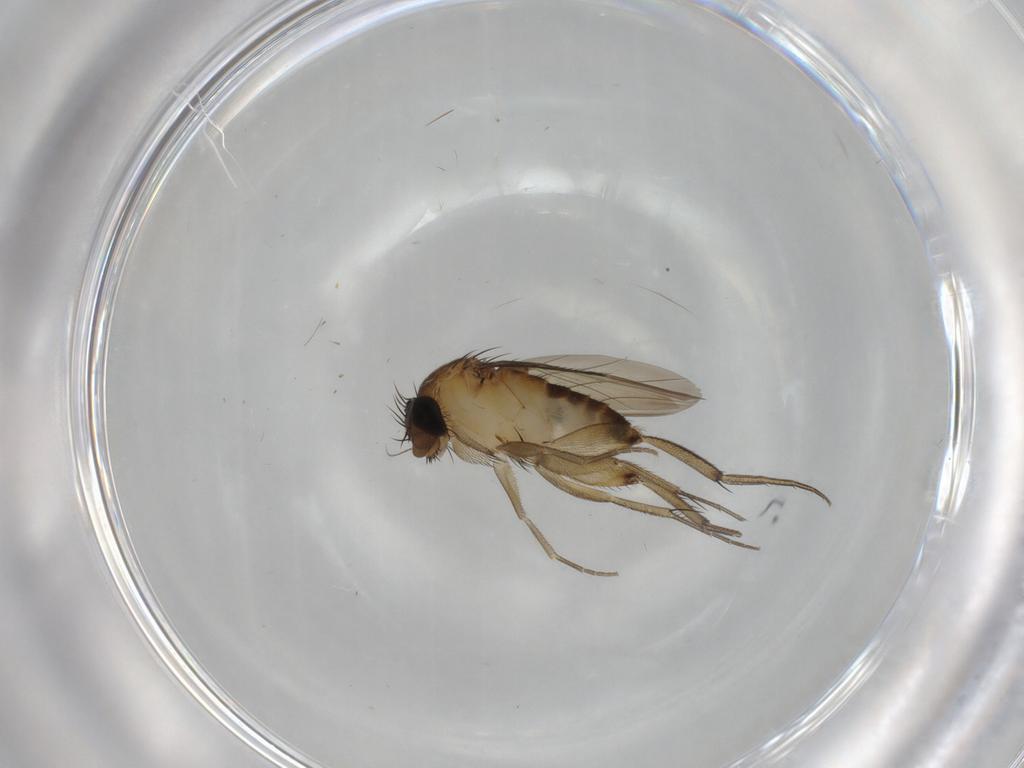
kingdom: Animalia
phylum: Arthropoda
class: Insecta
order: Diptera
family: Phoridae
